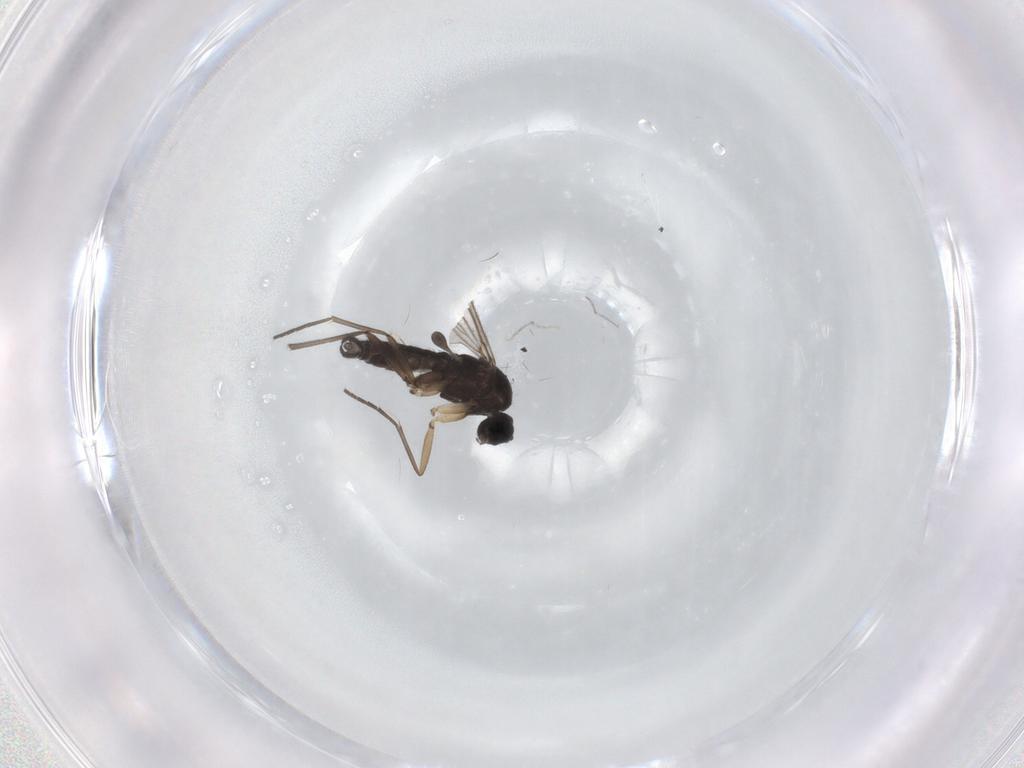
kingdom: Animalia
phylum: Arthropoda
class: Insecta
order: Diptera
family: Sciaridae
